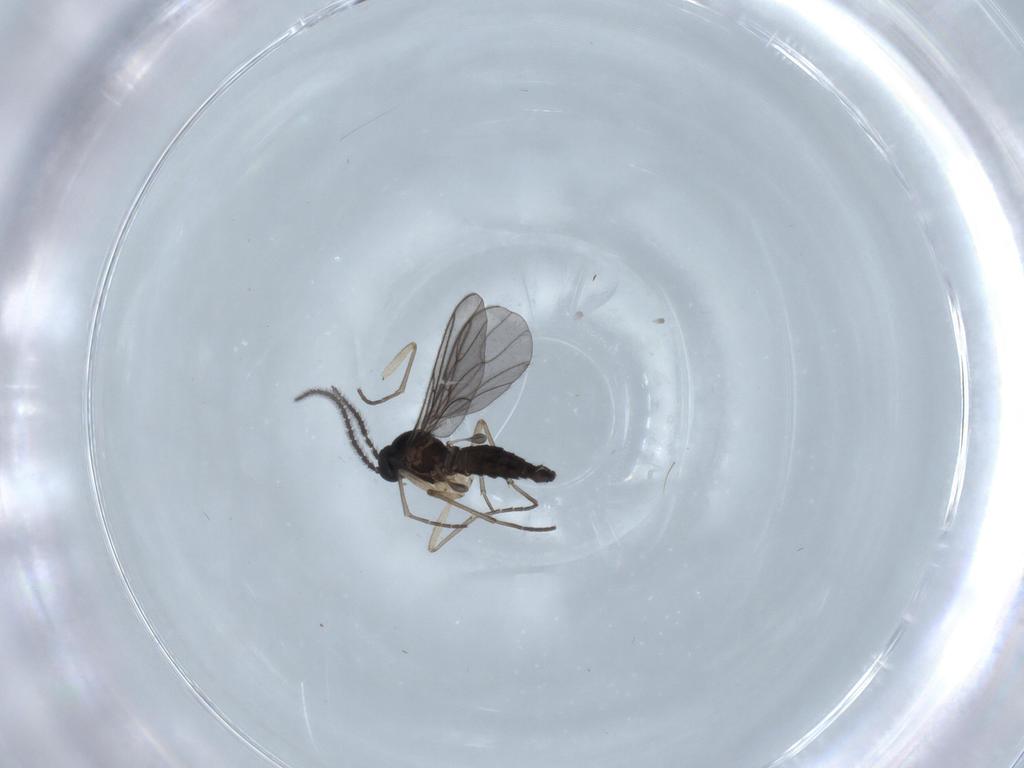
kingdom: Animalia
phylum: Arthropoda
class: Insecta
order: Diptera
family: Sciaridae
